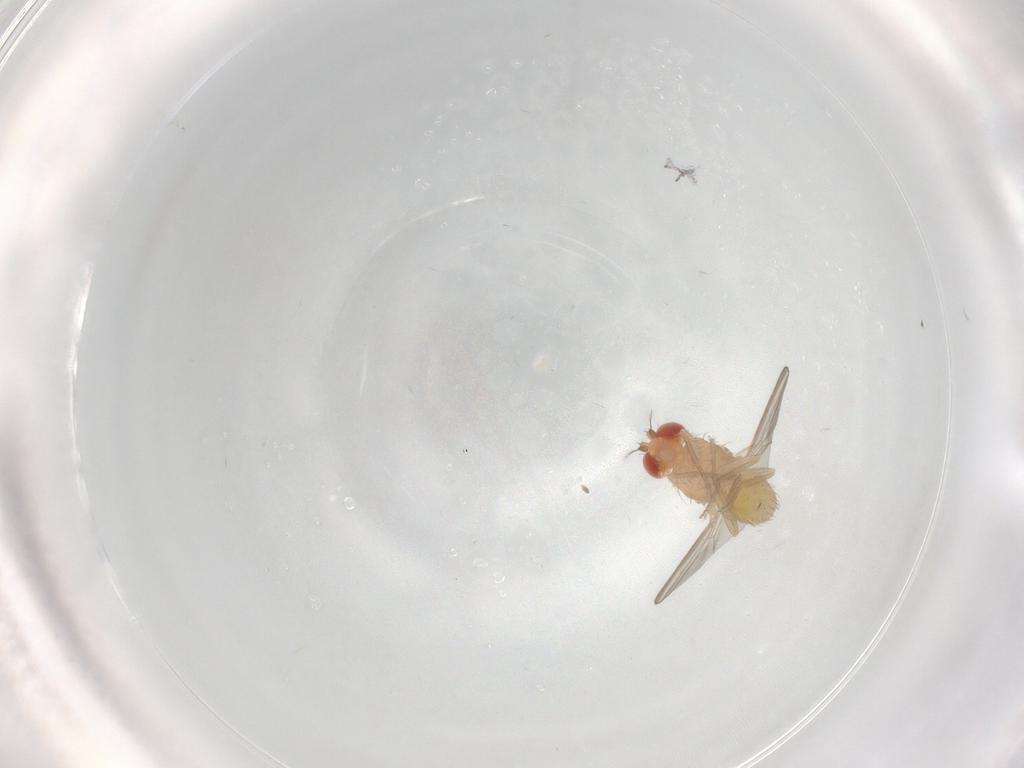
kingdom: Animalia
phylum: Arthropoda
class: Insecta
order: Diptera
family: Drosophilidae
